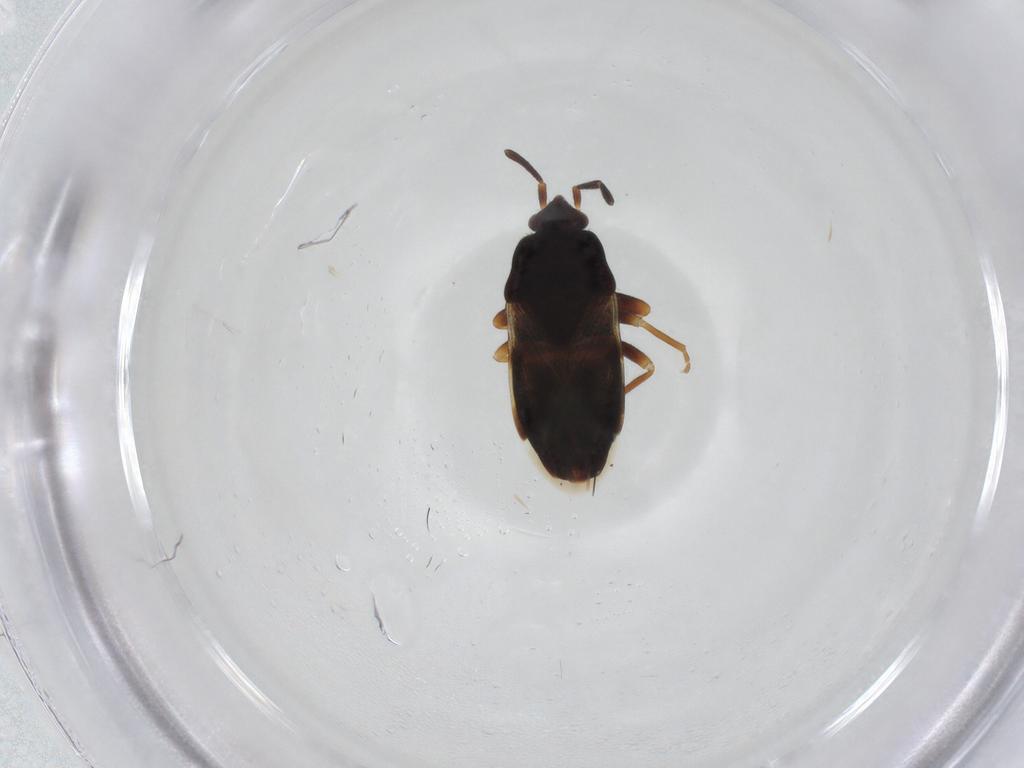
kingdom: Animalia
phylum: Arthropoda
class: Insecta
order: Hemiptera
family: Rhyparochromidae
